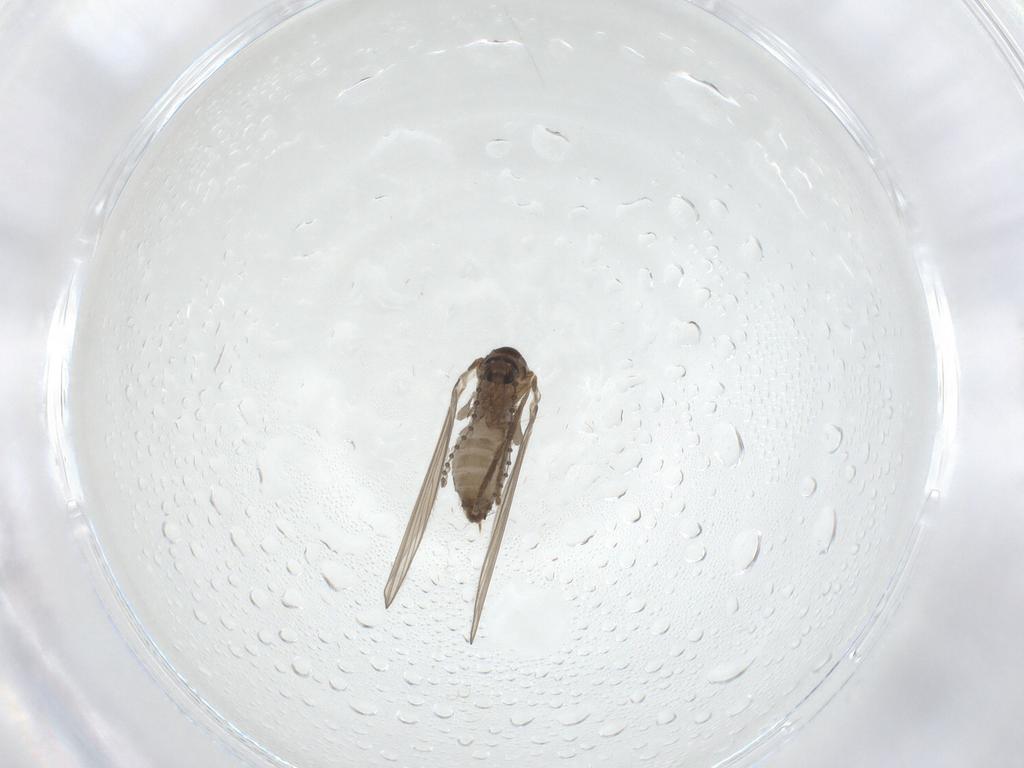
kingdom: Animalia
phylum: Arthropoda
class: Insecta
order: Diptera
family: Psychodidae
